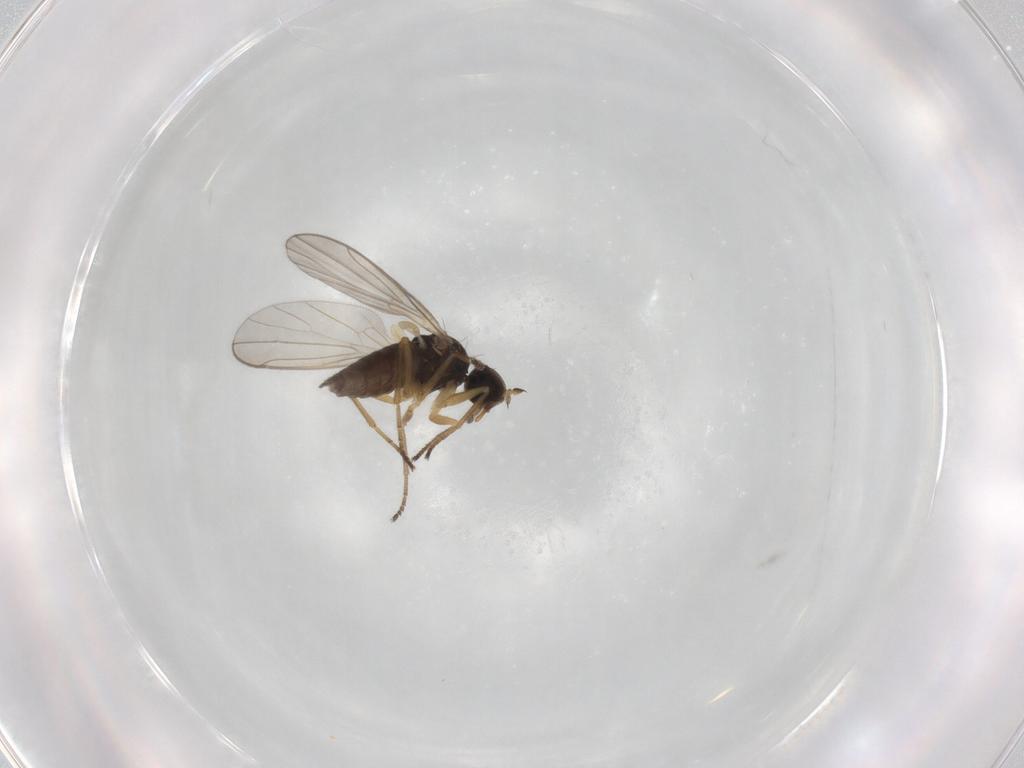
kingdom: Animalia
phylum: Arthropoda
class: Insecta
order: Diptera
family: Hybotidae
